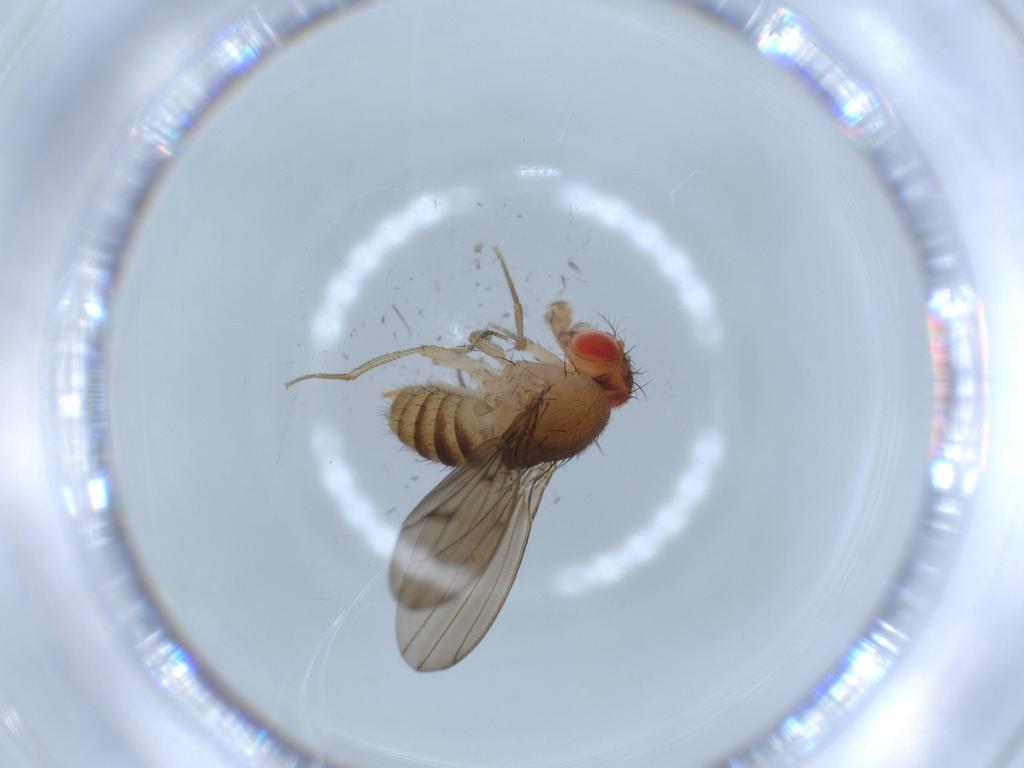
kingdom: Animalia
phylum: Arthropoda
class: Insecta
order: Diptera
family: Drosophilidae
